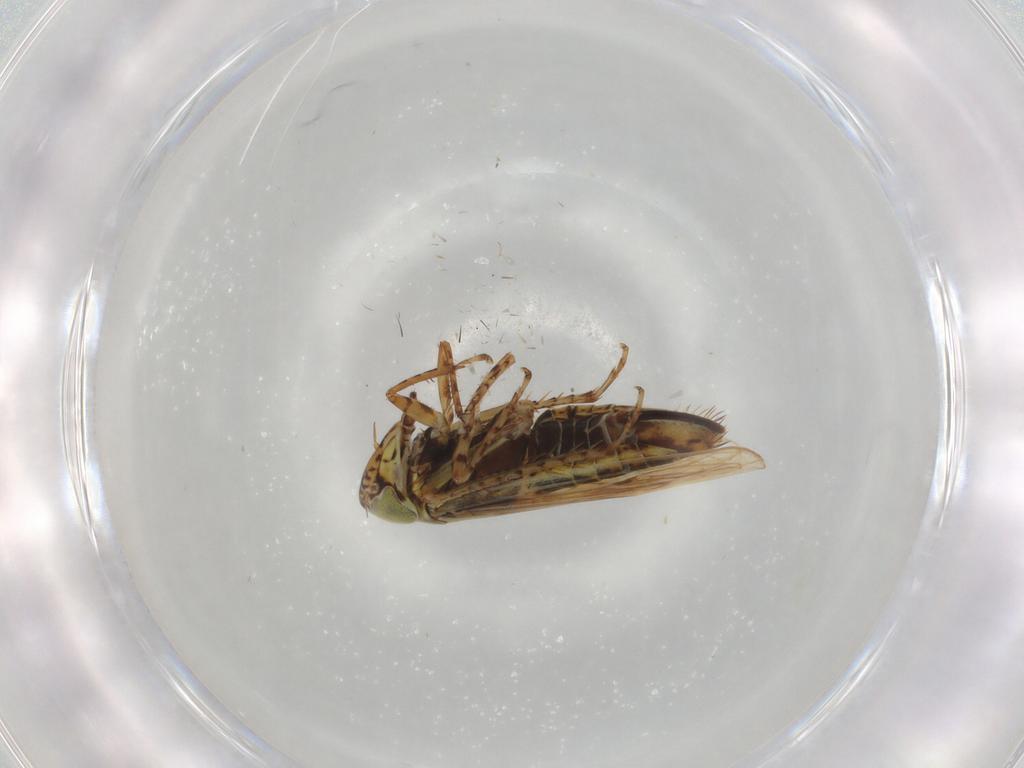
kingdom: Animalia
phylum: Arthropoda
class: Insecta
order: Hemiptera
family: Cicadellidae
